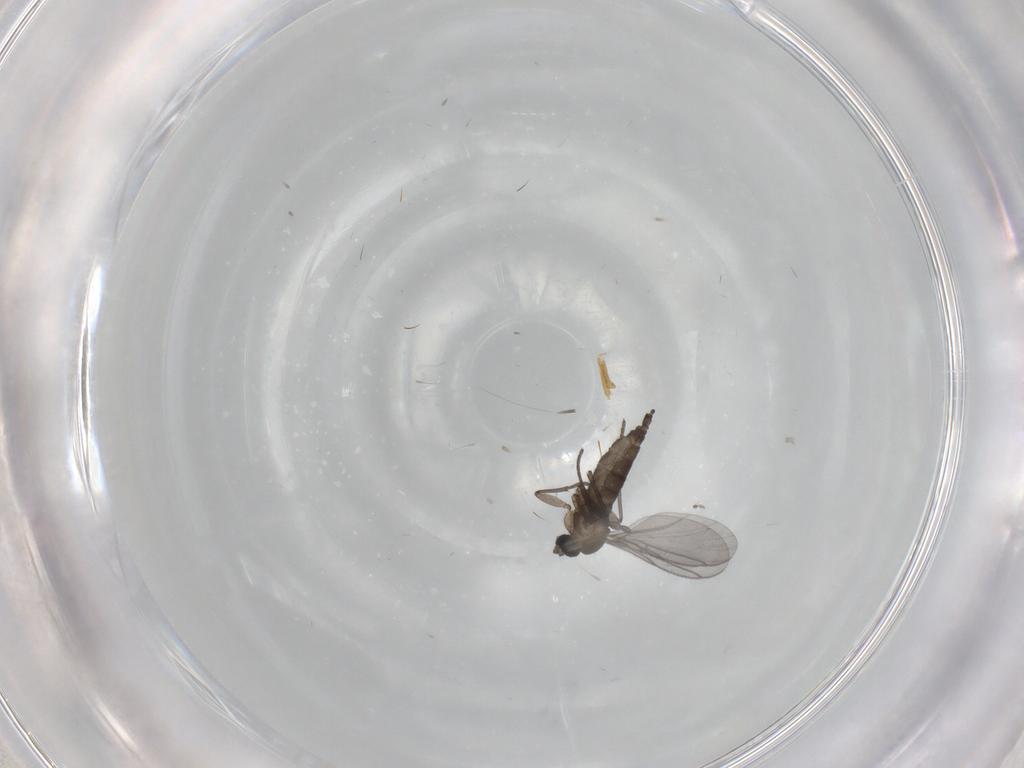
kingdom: Animalia
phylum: Arthropoda
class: Insecta
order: Diptera
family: Ceratopogonidae
